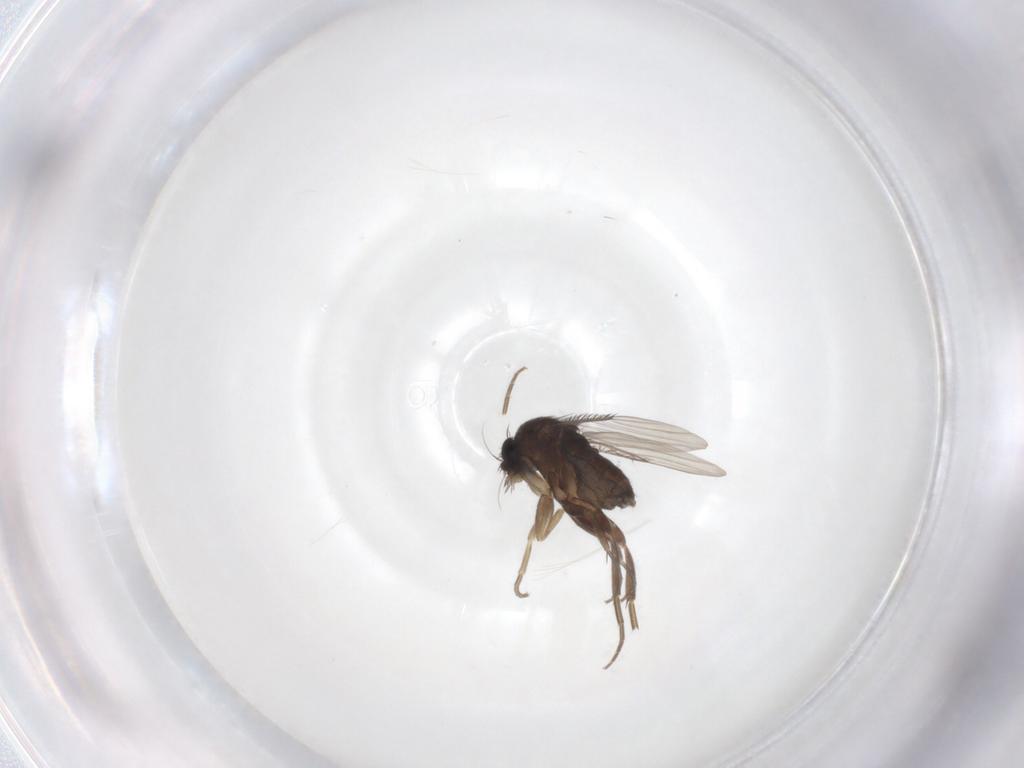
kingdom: Animalia
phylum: Arthropoda
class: Insecta
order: Diptera
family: Phoridae
